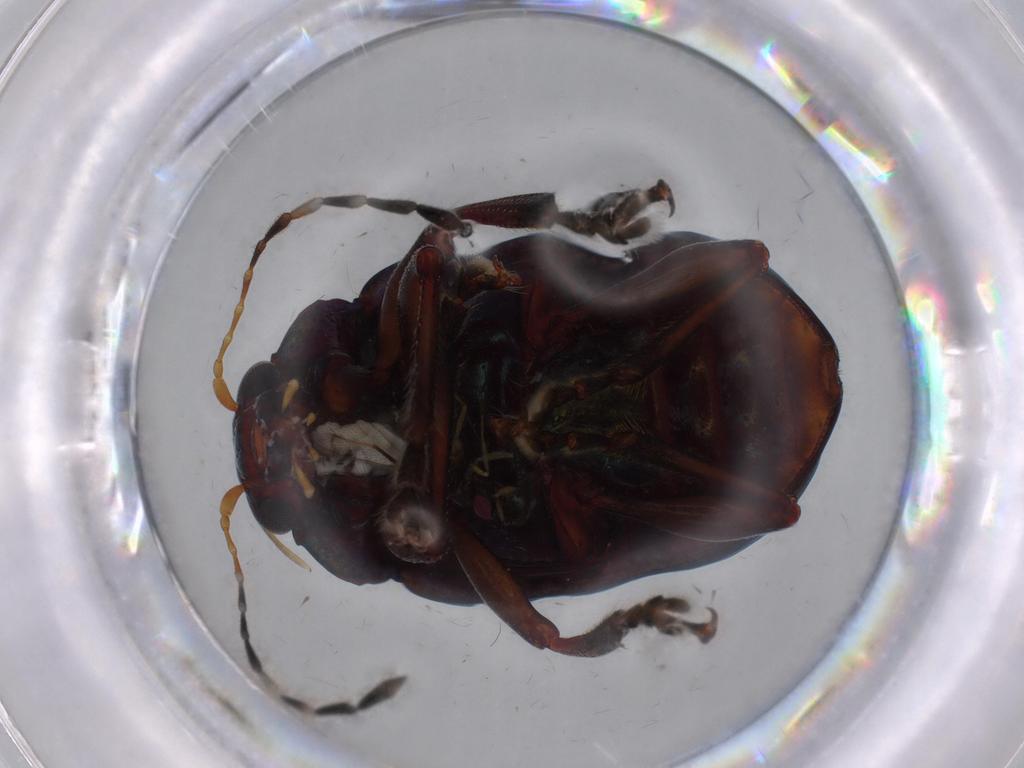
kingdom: Animalia
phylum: Arthropoda
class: Insecta
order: Coleoptera
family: Chrysomelidae
